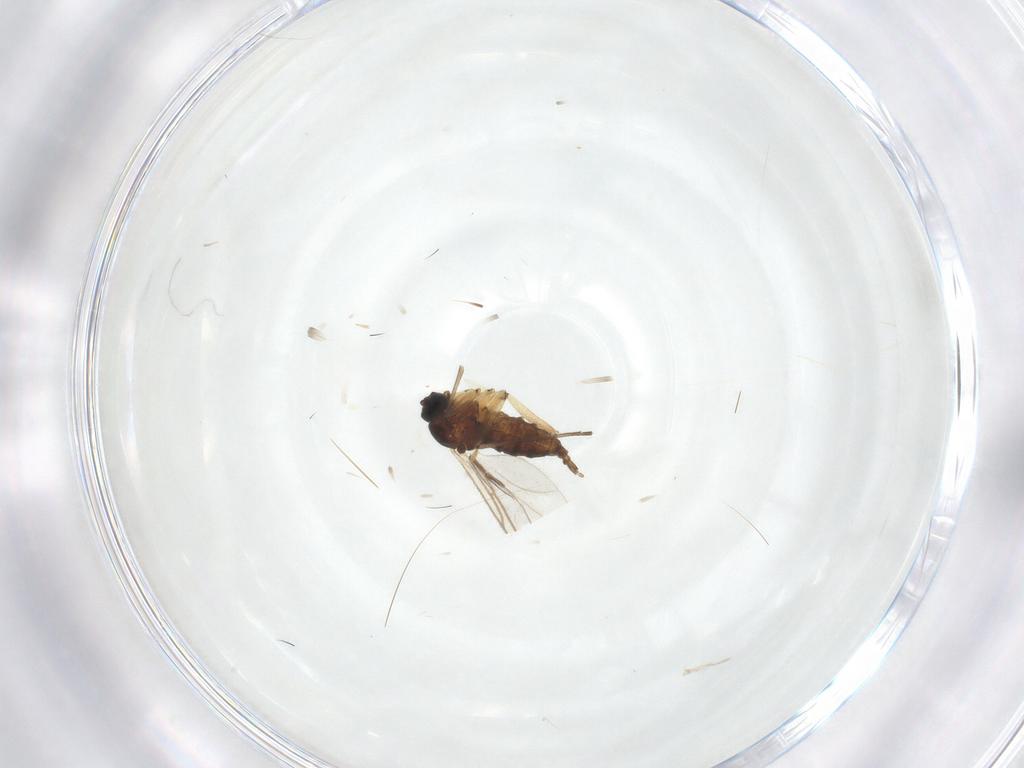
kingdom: Animalia
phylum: Arthropoda
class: Insecta
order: Diptera
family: Sciaridae
